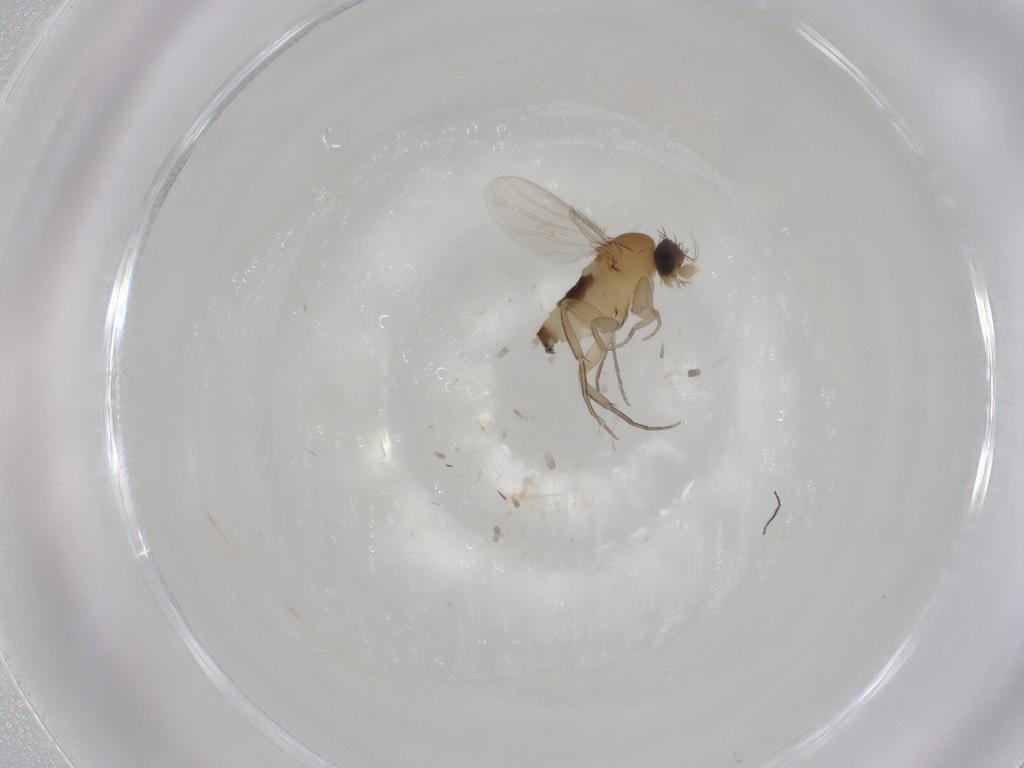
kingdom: Animalia
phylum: Arthropoda
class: Insecta
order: Diptera
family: Phoridae
